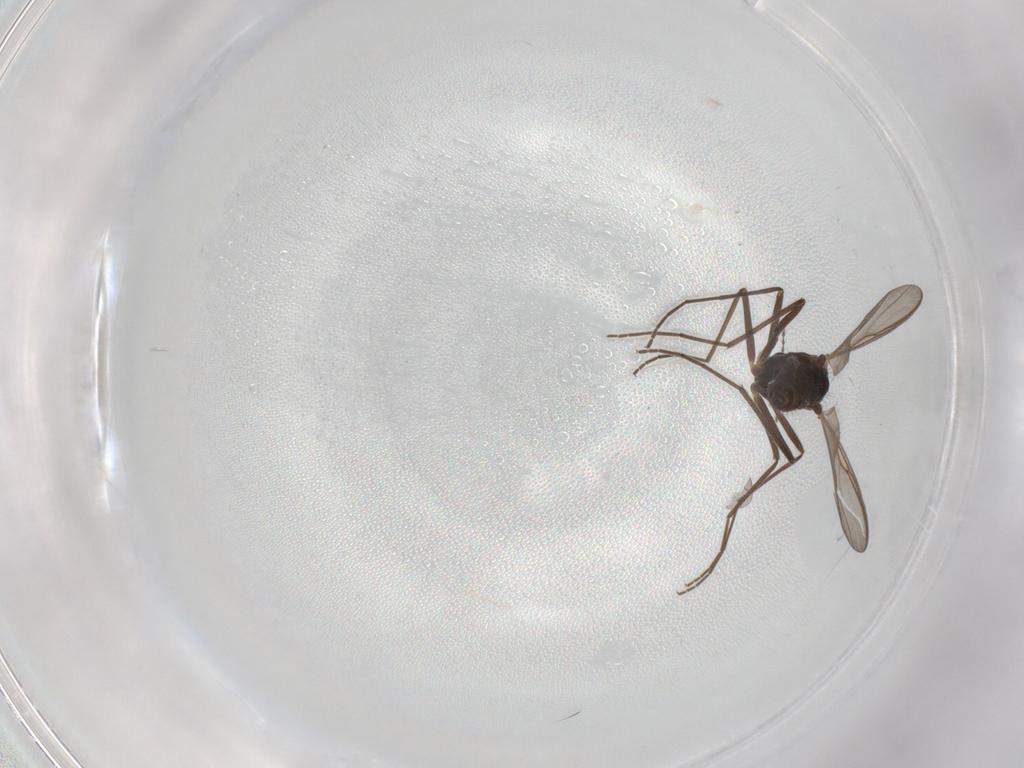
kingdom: Animalia
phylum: Arthropoda
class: Insecta
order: Diptera
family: Chironomidae
